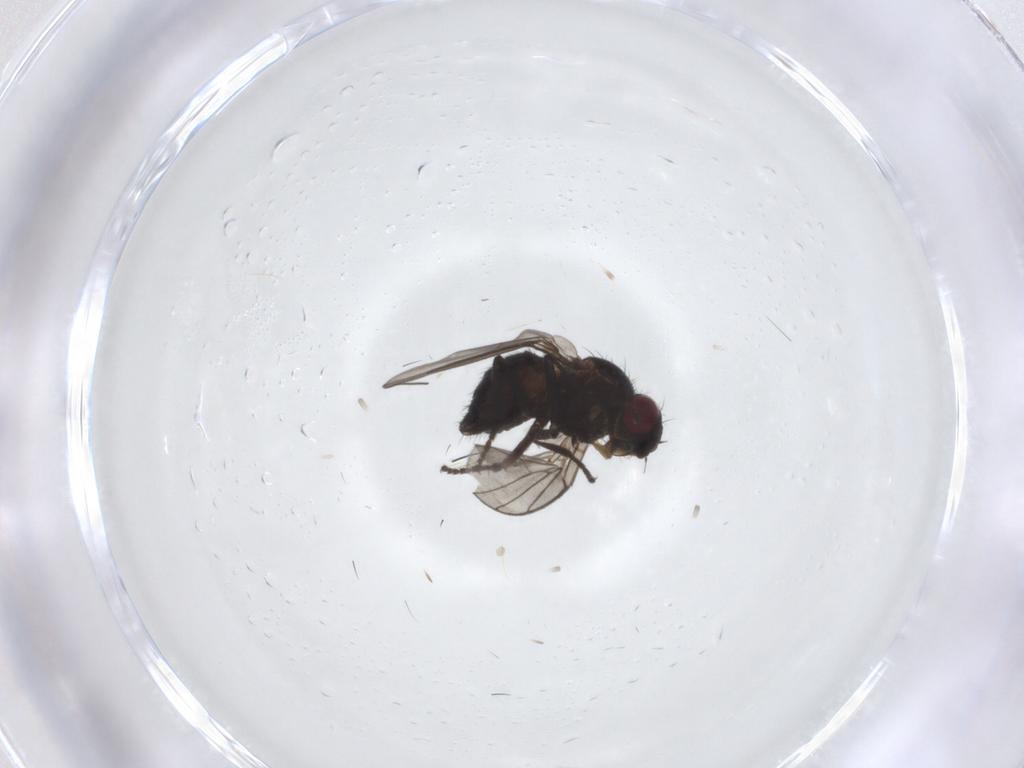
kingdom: Animalia
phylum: Arthropoda
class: Insecta
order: Diptera
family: Agromyzidae
